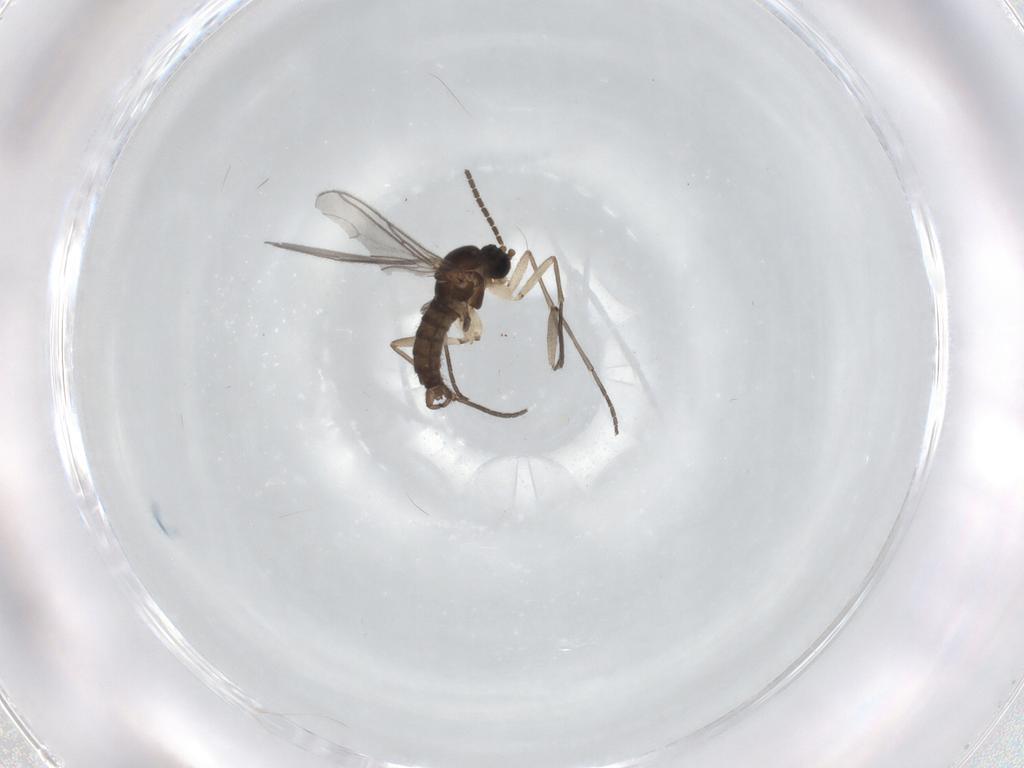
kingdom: Animalia
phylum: Arthropoda
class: Insecta
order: Diptera
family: Sciaridae
